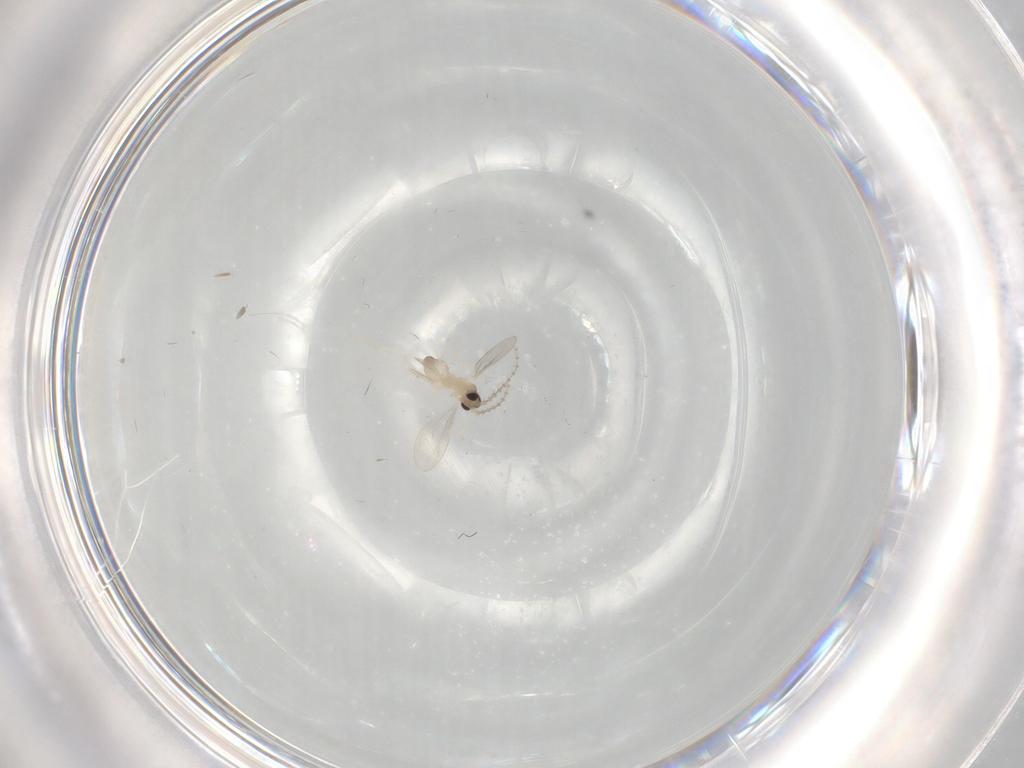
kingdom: Animalia
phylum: Arthropoda
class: Insecta
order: Diptera
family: Cecidomyiidae
